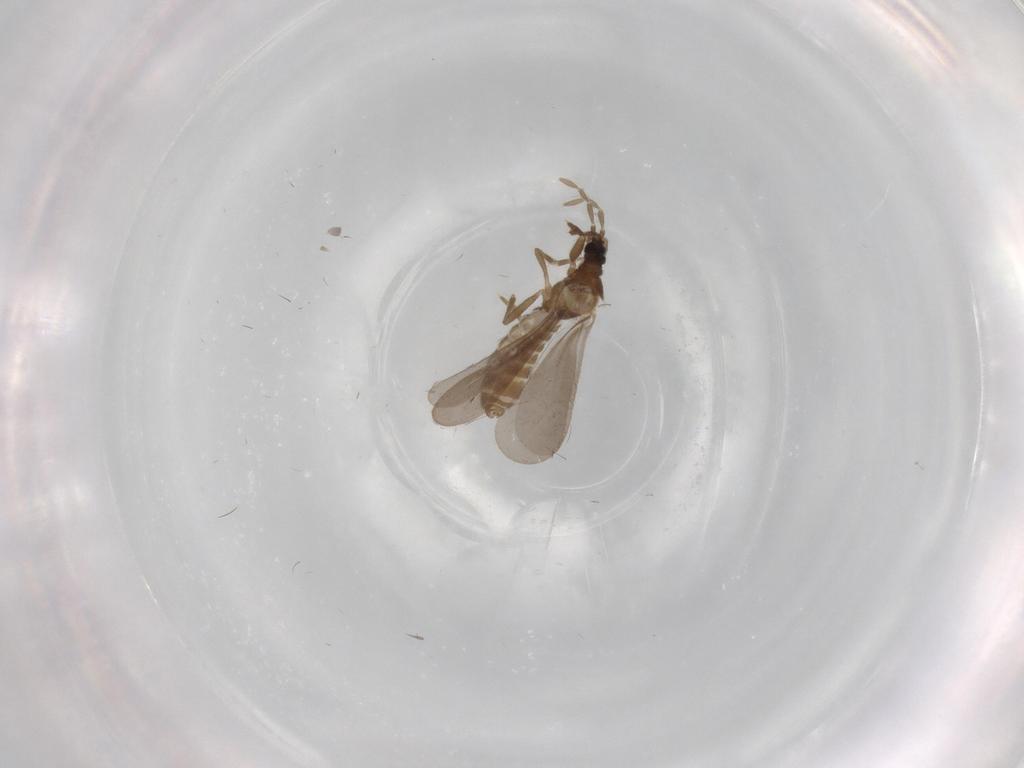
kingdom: Animalia
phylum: Arthropoda
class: Insecta
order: Hemiptera
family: Enicocephalidae
